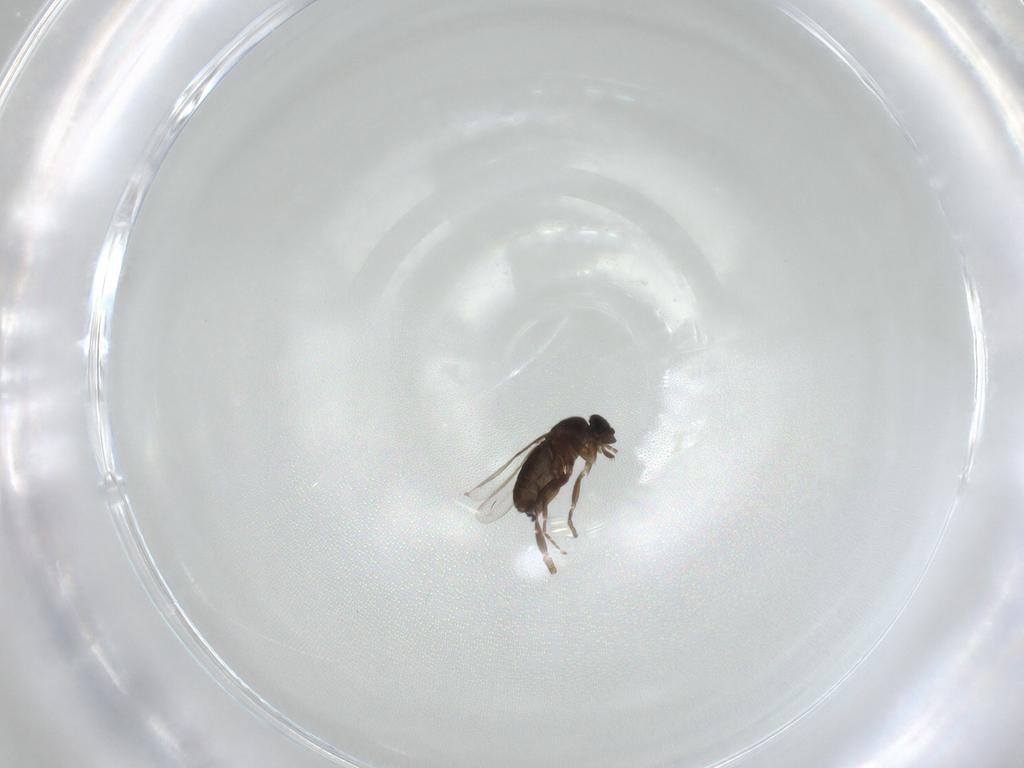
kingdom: Animalia
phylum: Arthropoda
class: Insecta
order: Diptera
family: Phoridae
